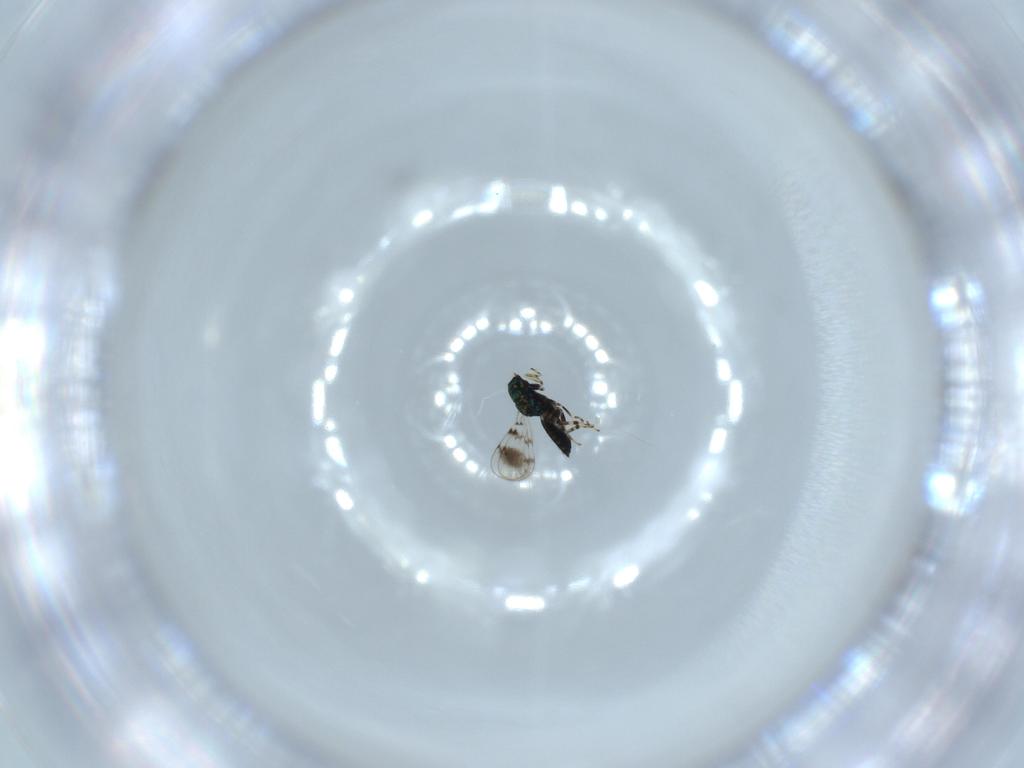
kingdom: Animalia
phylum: Arthropoda
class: Insecta
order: Hymenoptera
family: Eulophidae
